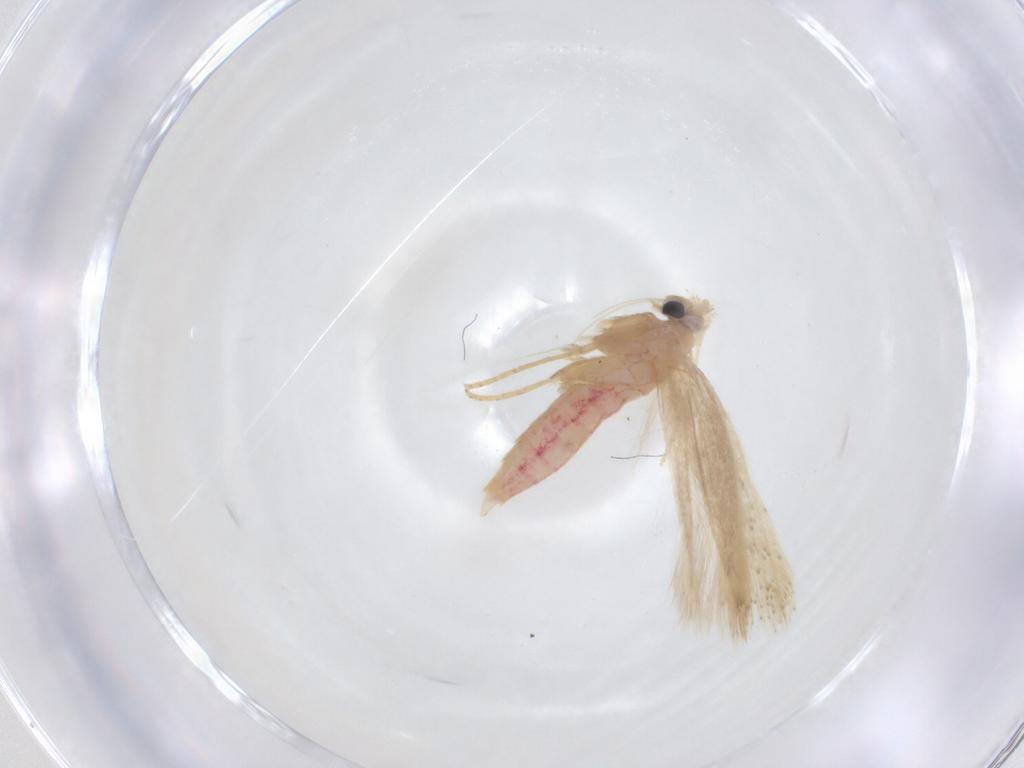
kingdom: Animalia
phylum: Arthropoda
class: Insecta
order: Lepidoptera
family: Bedelliidae
